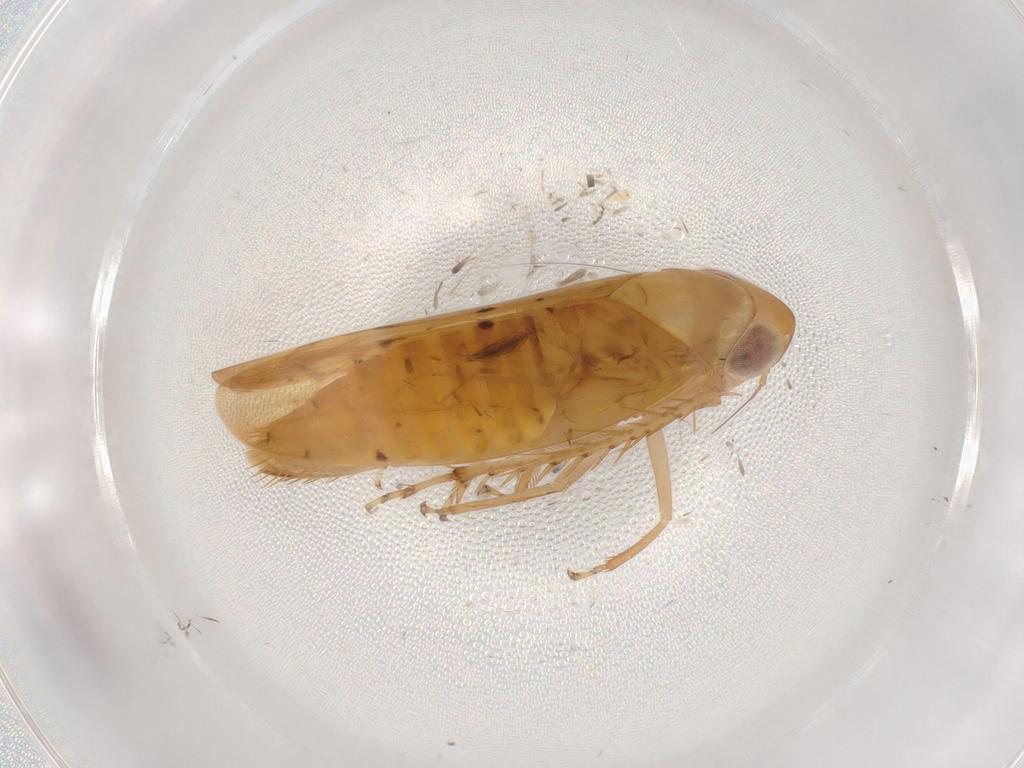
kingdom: Animalia
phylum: Arthropoda
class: Insecta
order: Hemiptera
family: Cicadellidae
